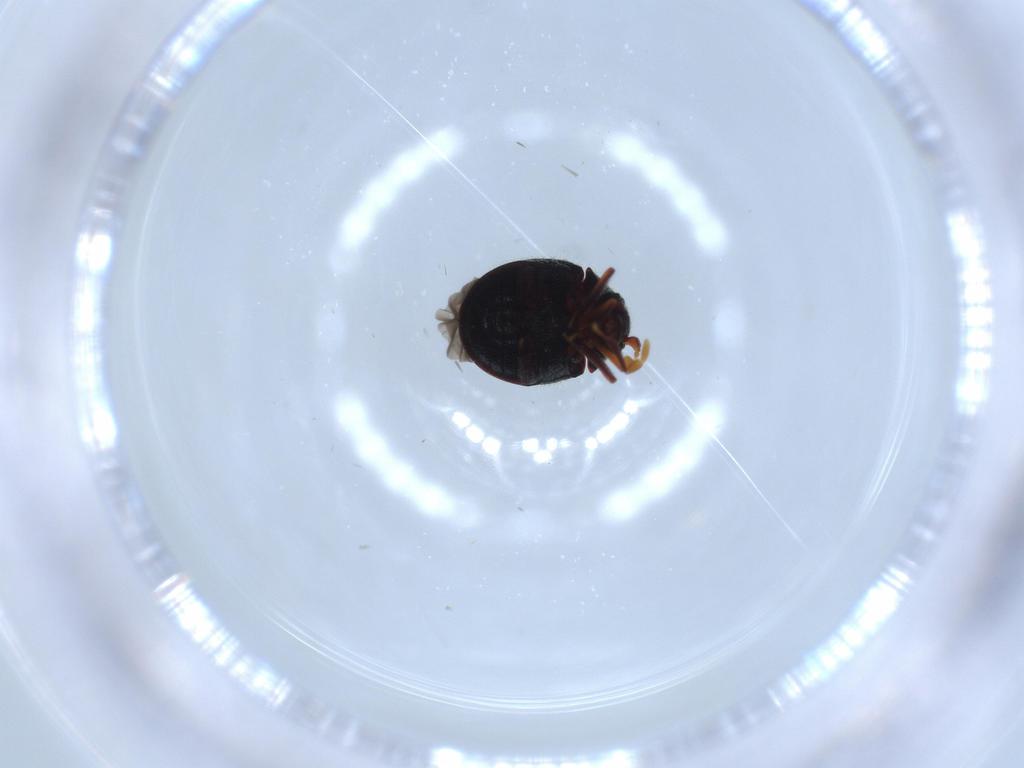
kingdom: Animalia
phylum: Arthropoda
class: Insecta
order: Coleoptera
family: Ptinidae
